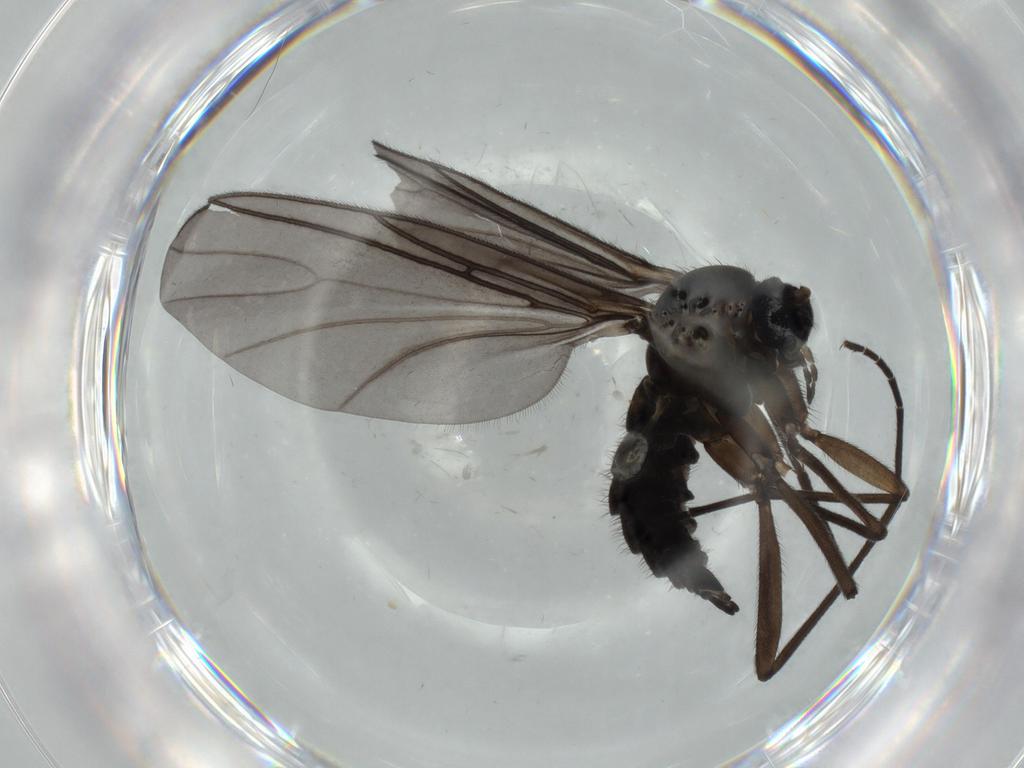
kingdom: Animalia
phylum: Arthropoda
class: Insecta
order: Diptera
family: Sciaridae
